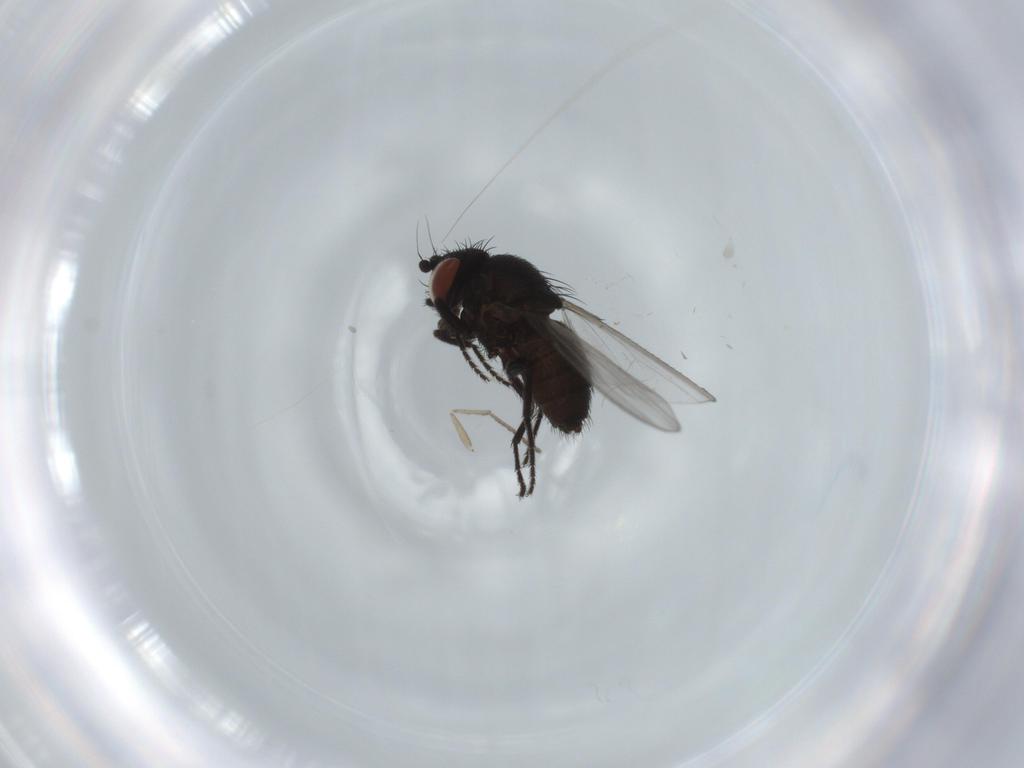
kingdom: Animalia
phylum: Arthropoda
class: Insecta
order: Diptera
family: Milichiidae
